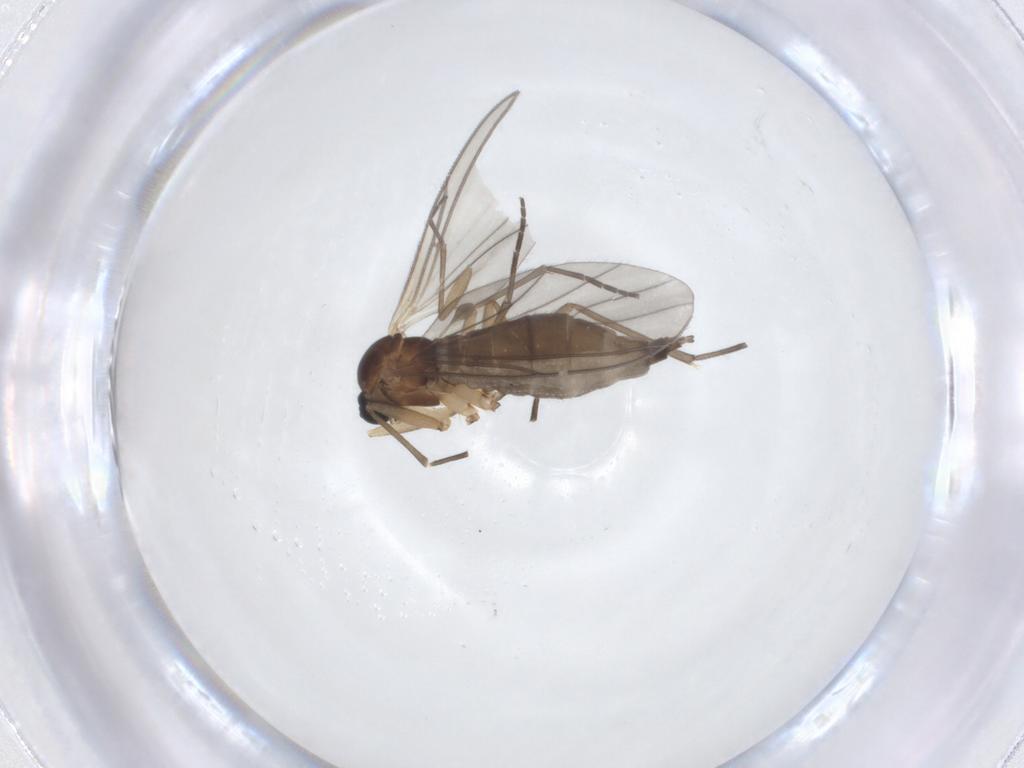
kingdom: Animalia
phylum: Arthropoda
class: Insecta
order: Diptera
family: Sciaridae
